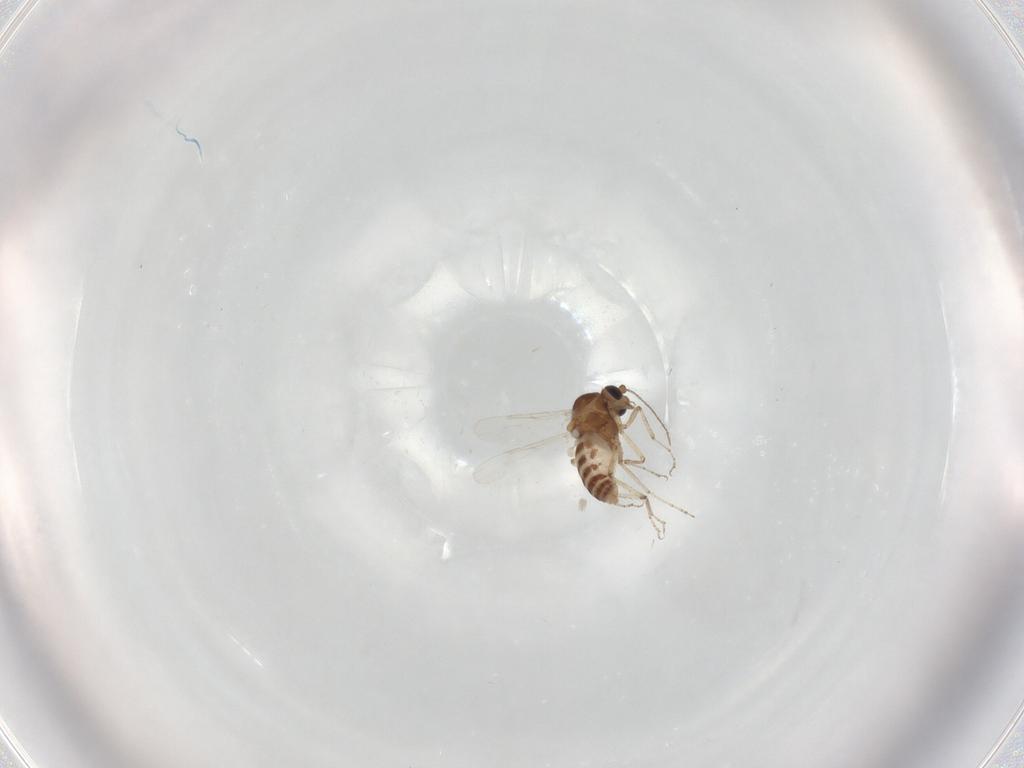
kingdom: Animalia
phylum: Arthropoda
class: Insecta
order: Diptera
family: Ceratopogonidae
